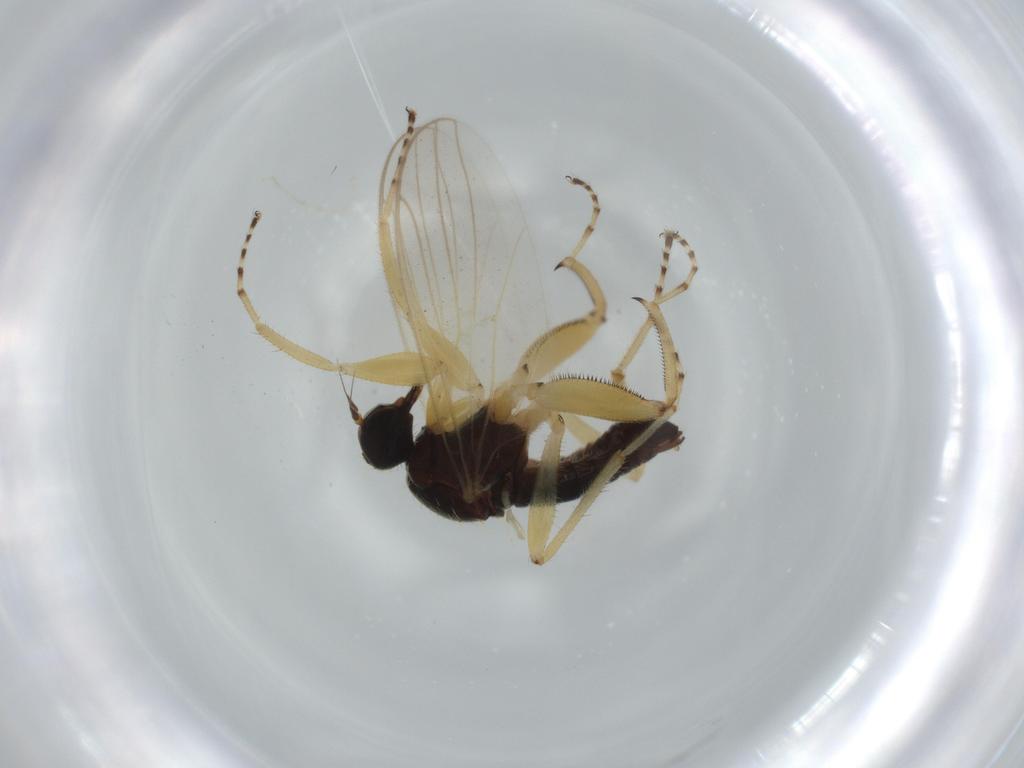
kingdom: Animalia
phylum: Arthropoda
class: Insecta
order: Diptera
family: Hybotidae
